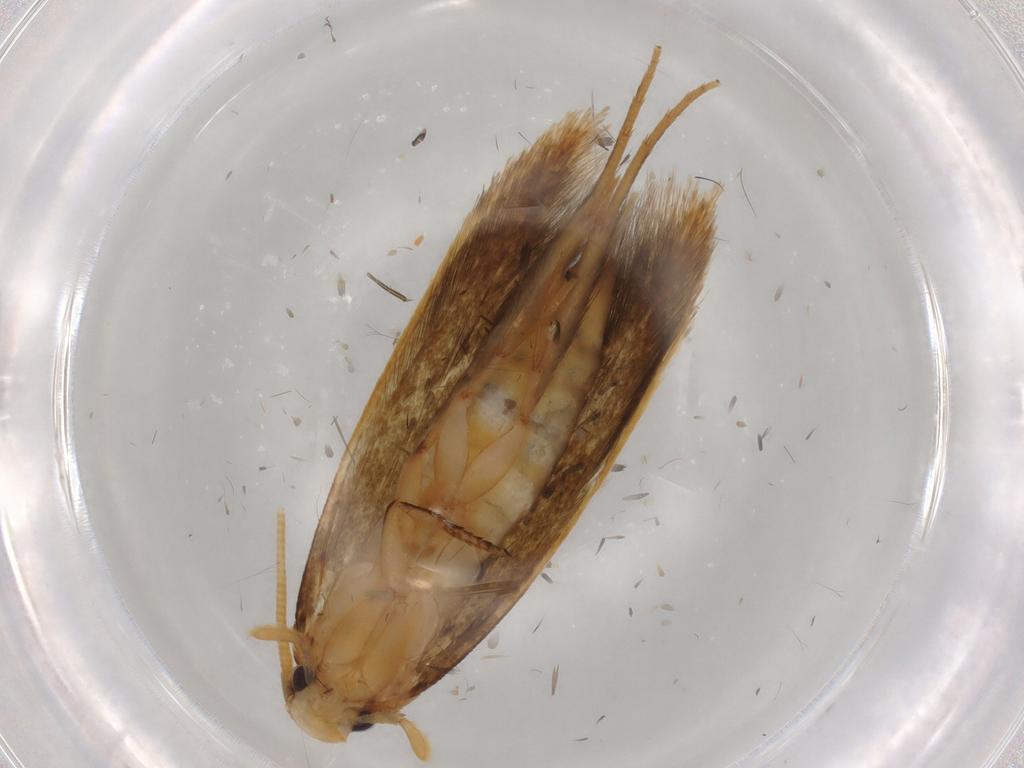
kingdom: Animalia
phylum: Arthropoda
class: Insecta
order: Lepidoptera
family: Tineidae
